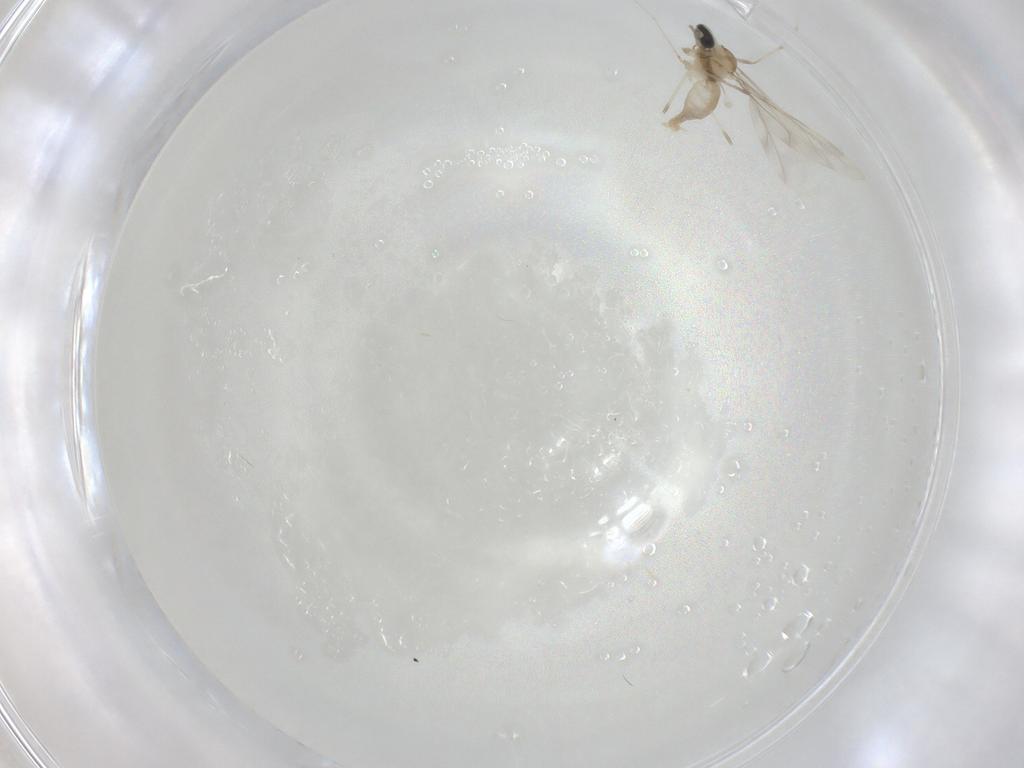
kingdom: Animalia
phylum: Arthropoda
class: Insecta
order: Diptera
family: Cecidomyiidae
